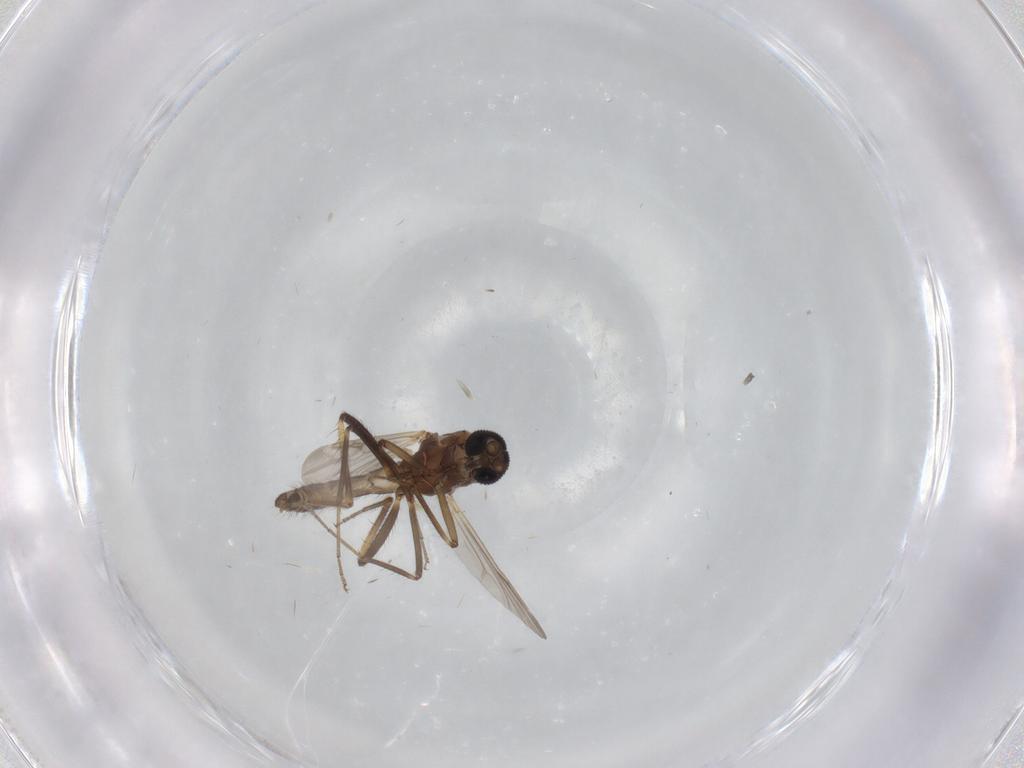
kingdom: Animalia
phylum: Arthropoda
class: Insecta
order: Diptera
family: Ceratopogonidae
